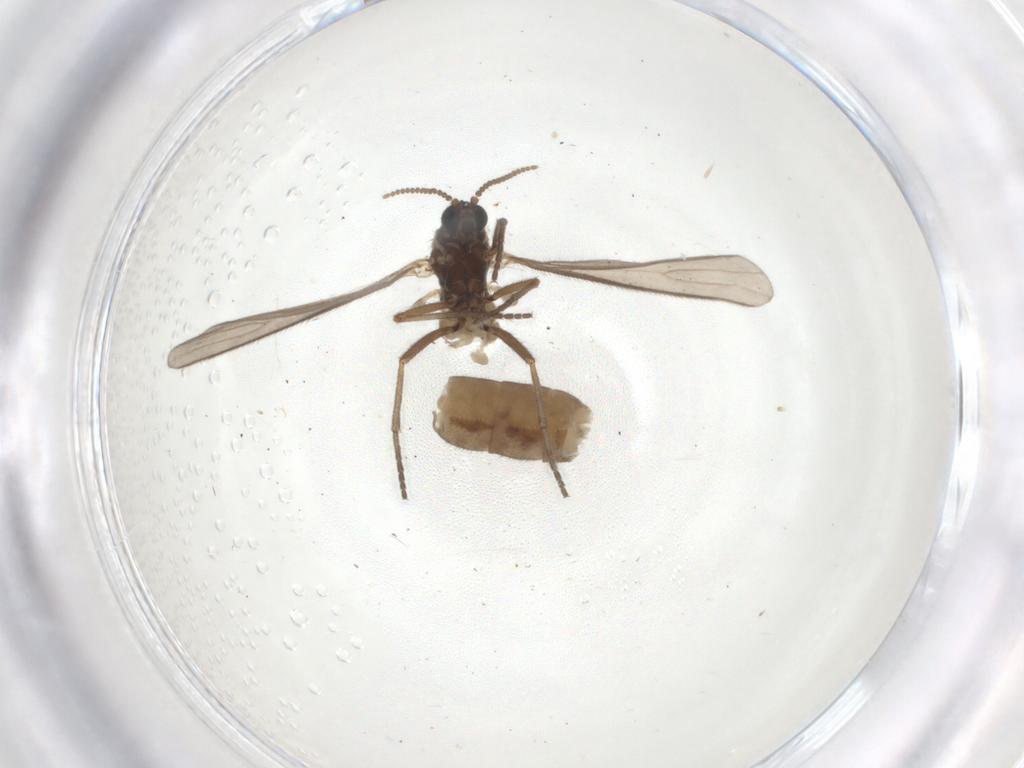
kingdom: Animalia
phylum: Arthropoda
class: Insecta
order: Diptera
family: Sciaridae
